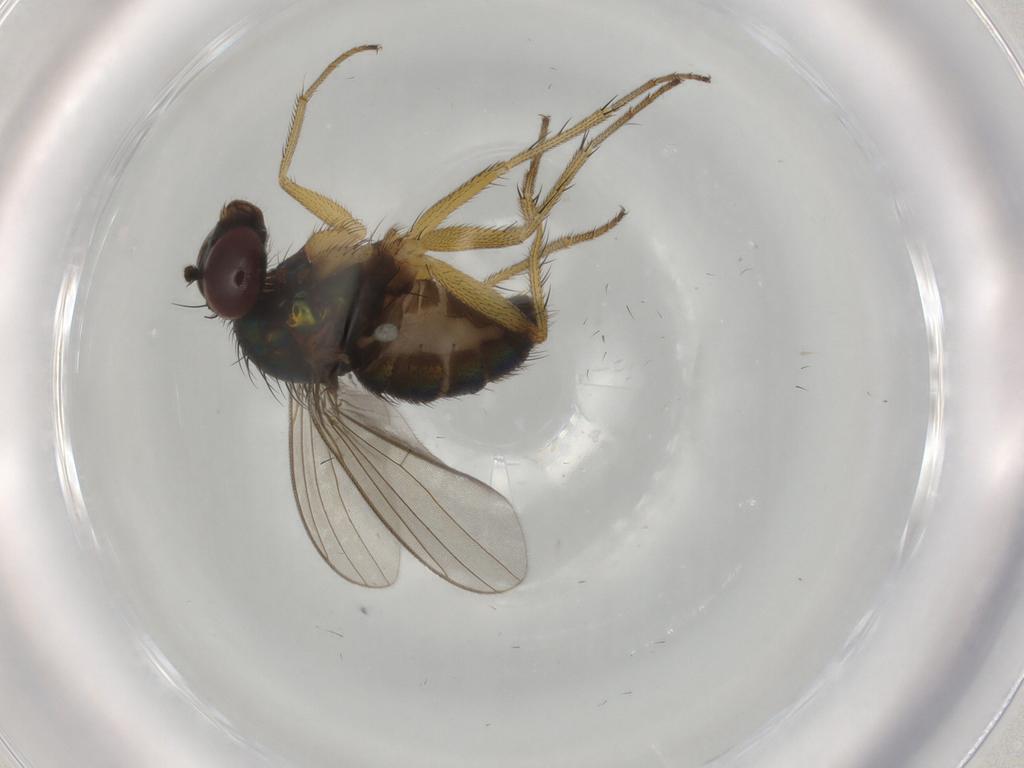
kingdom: Animalia
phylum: Arthropoda
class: Insecta
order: Diptera
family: Dolichopodidae
